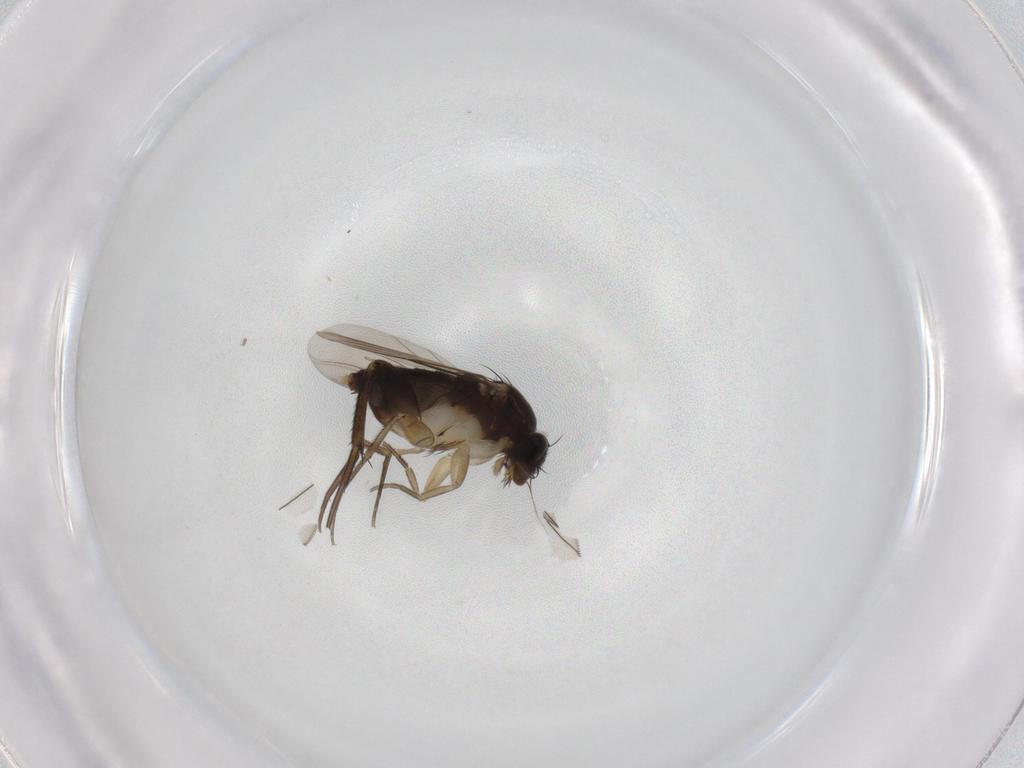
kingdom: Animalia
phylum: Arthropoda
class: Insecta
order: Diptera
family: Phoridae
